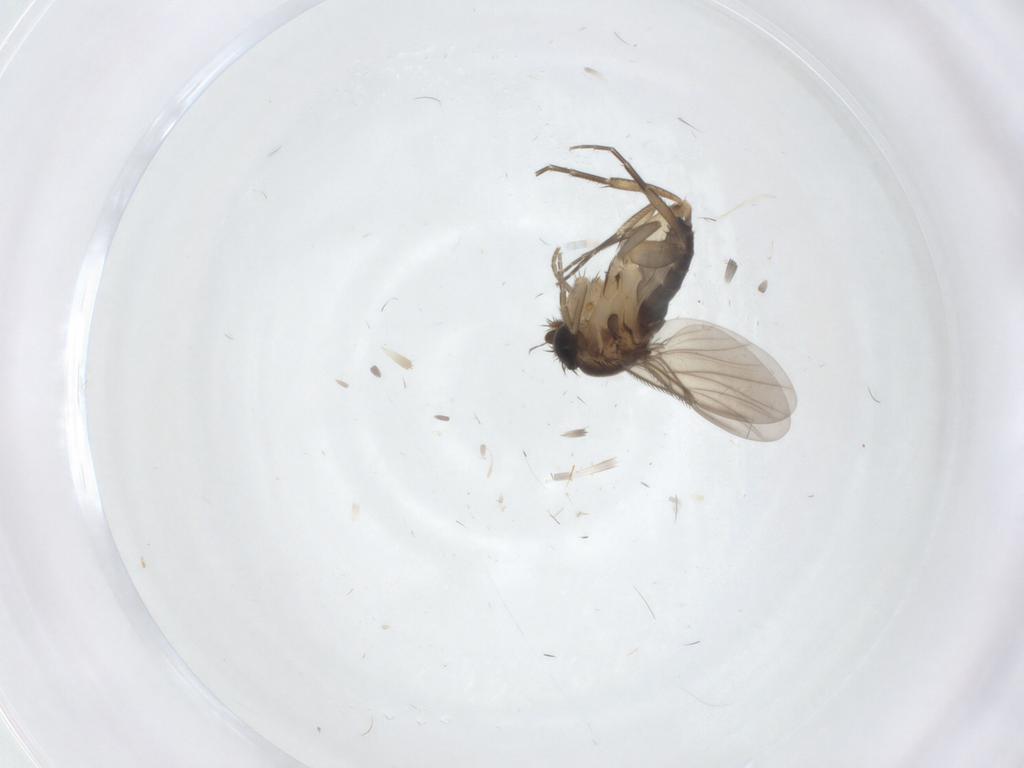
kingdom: Animalia
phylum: Arthropoda
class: Insecta
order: Diptera
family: Phoridae
